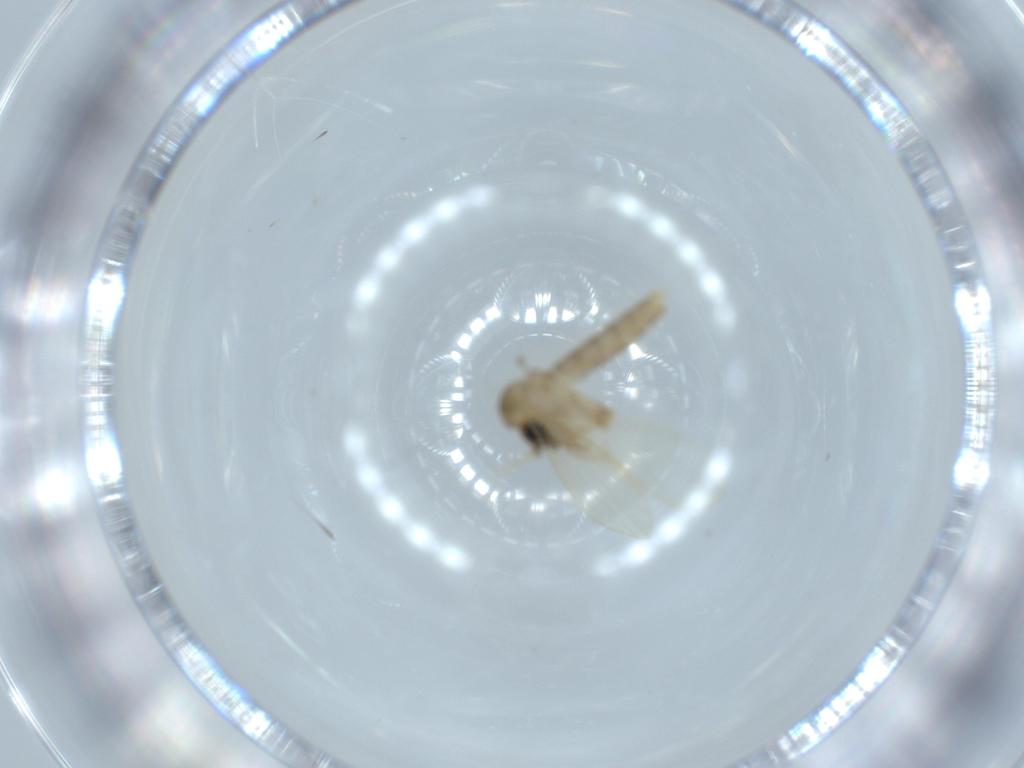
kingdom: Animalia
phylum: Arthropoda
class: Insecta
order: Diptera
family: Psychodidae
